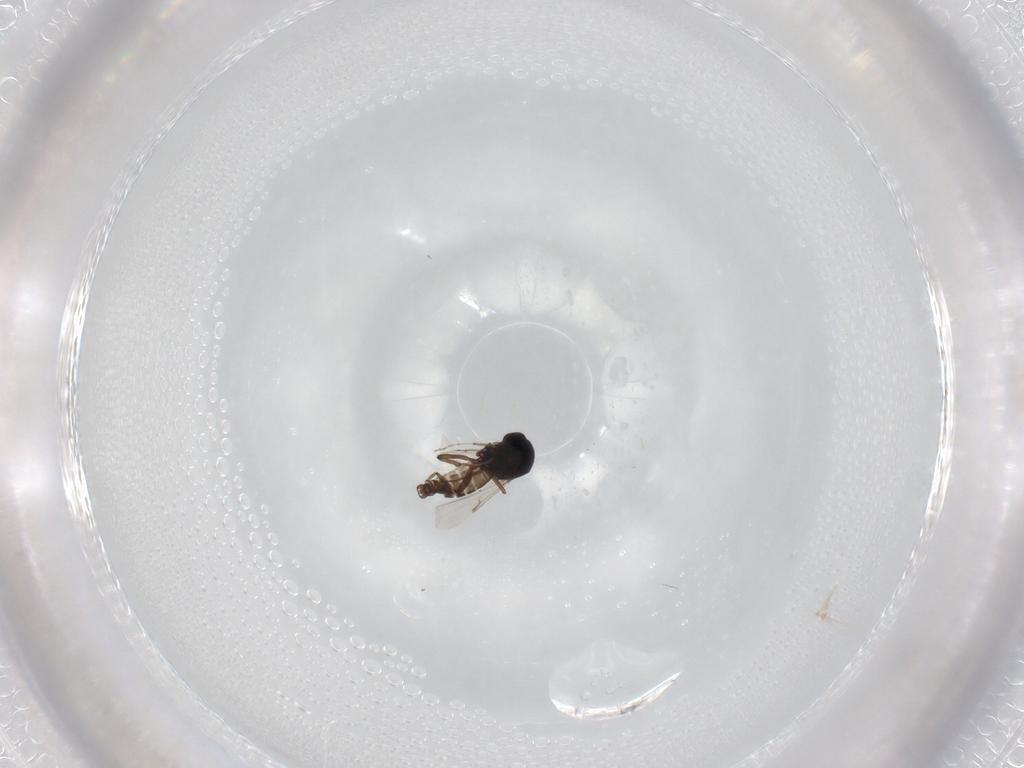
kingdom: Animalia
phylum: Arthropoda
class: Insecta
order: Diptera
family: Ceratopogonidae
